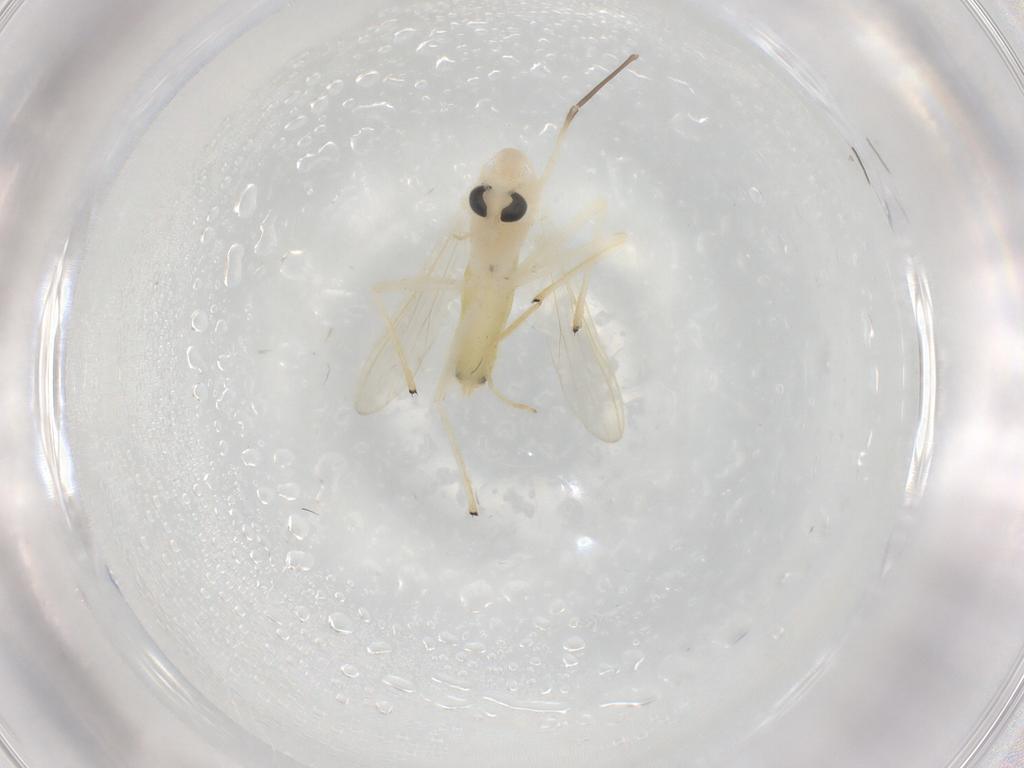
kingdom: Animalia
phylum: Arthropoda
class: Insecta
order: Diptera
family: Chironomidae
